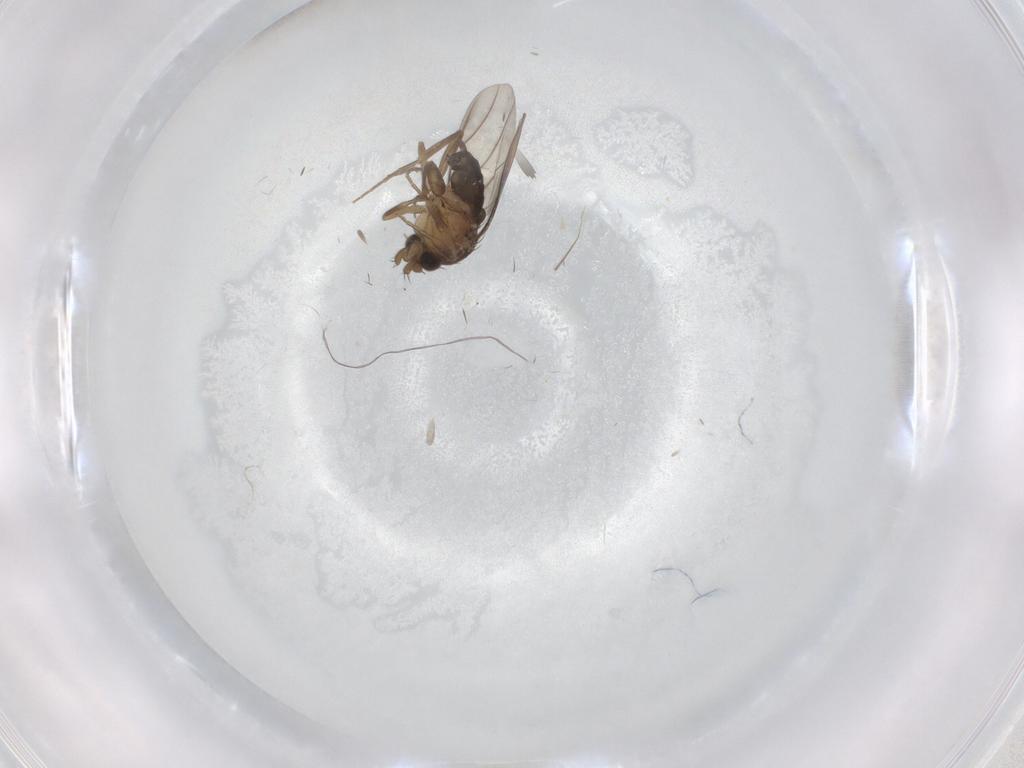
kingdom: Animalia
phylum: Arthropoda
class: Insecta
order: Diptera
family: Phoridae
